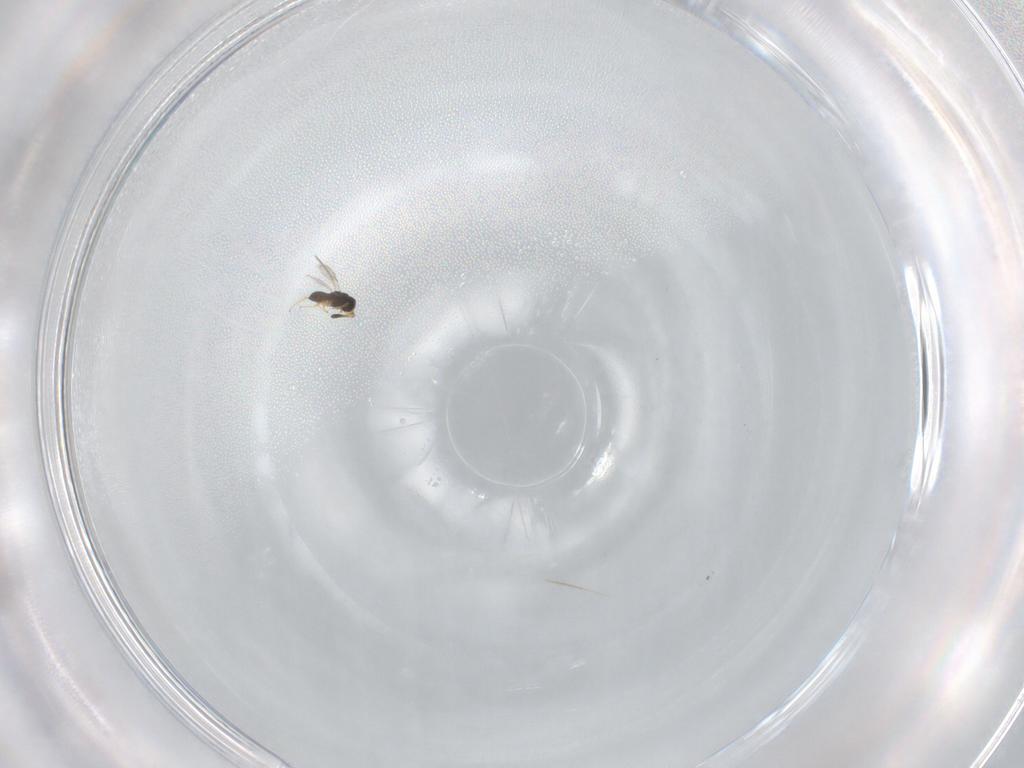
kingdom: Animalia
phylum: Arthropoda
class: Insecta
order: Hymenoptera
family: Scelionidae
